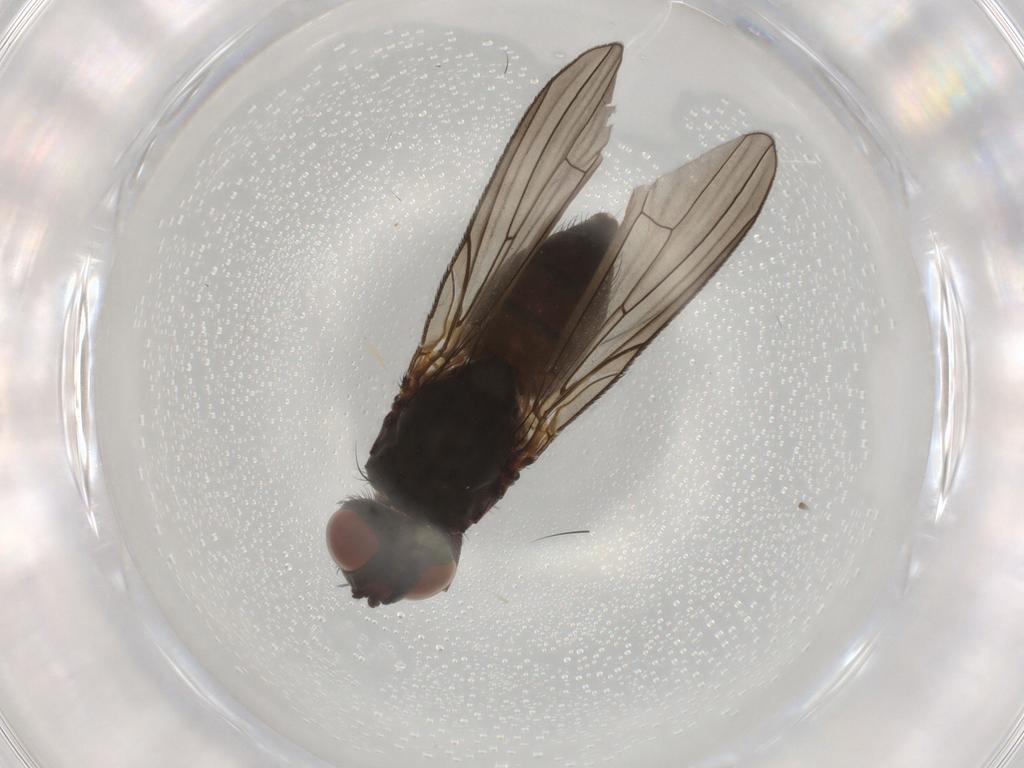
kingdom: Animalia
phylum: Arthropoda
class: Insecta
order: Diptera
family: Anthomyiidae
